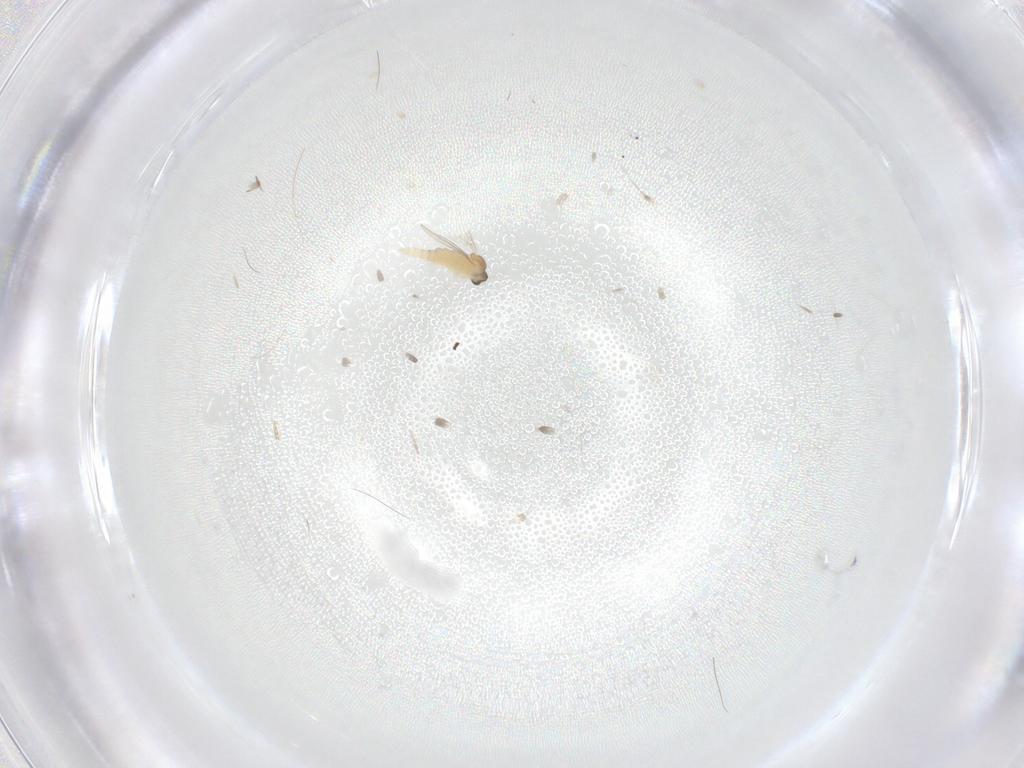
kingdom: Animalia
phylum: Arthropoda
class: Insecta
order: Diptera
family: Cecidomyiidae
